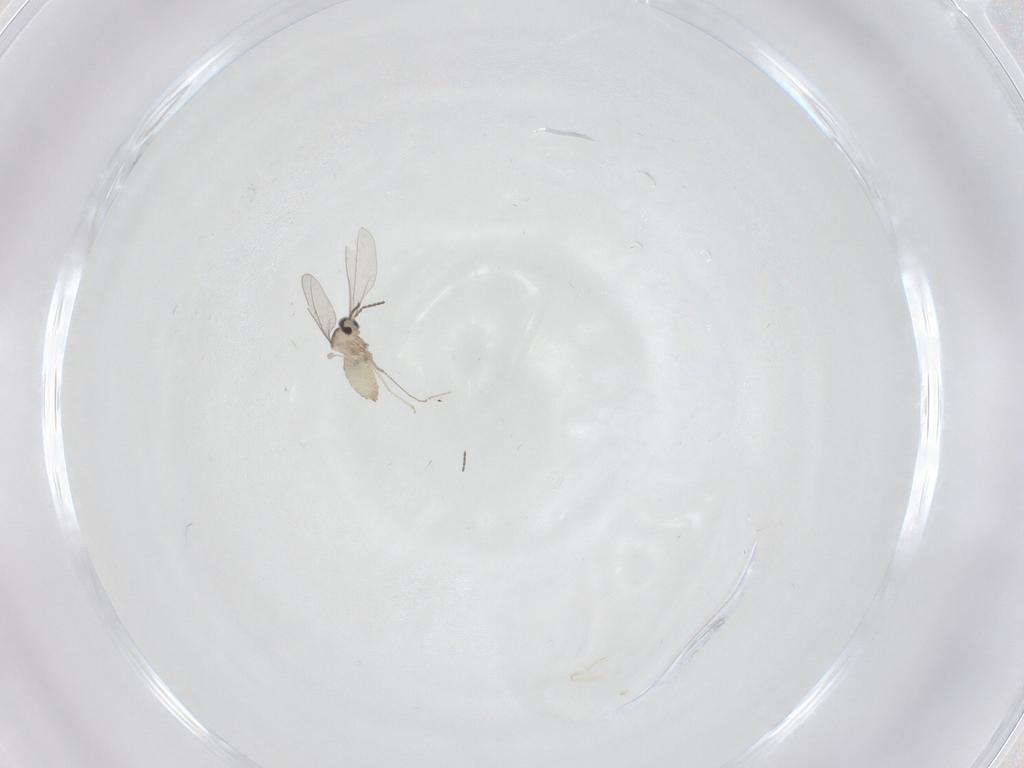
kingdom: Animalia
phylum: Arthropoda
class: Insecta
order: Diptera
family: Chironomidae
